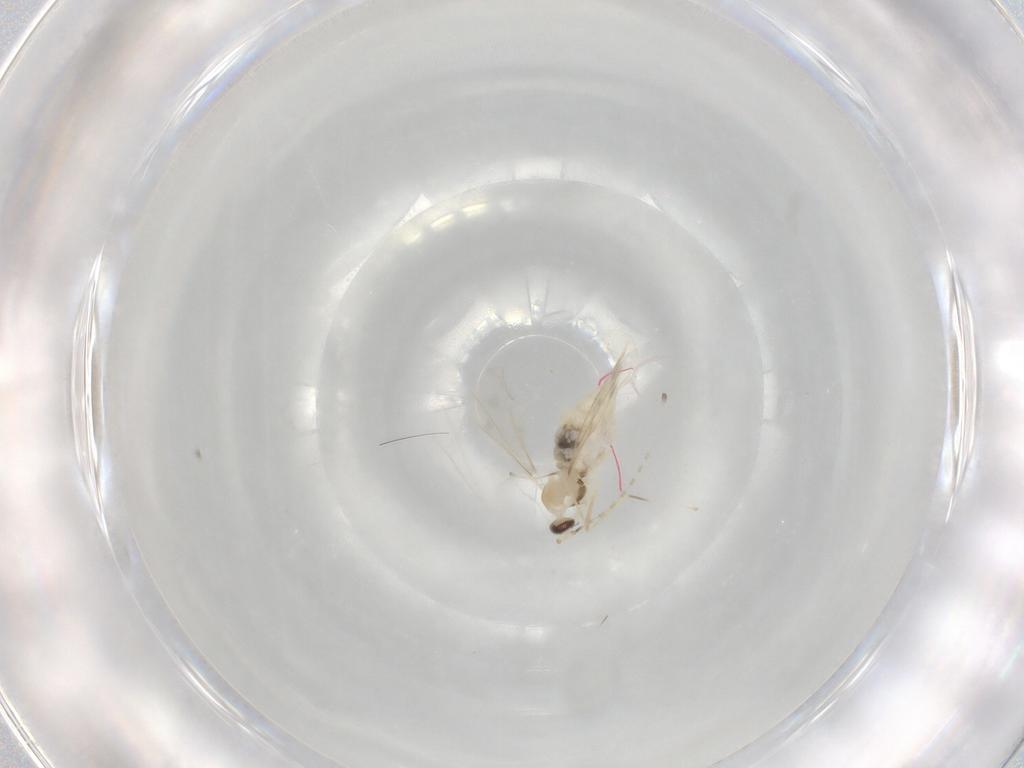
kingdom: Animalia
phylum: Arthropoda
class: Insecta
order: Diptera
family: Cecidomyiidae
